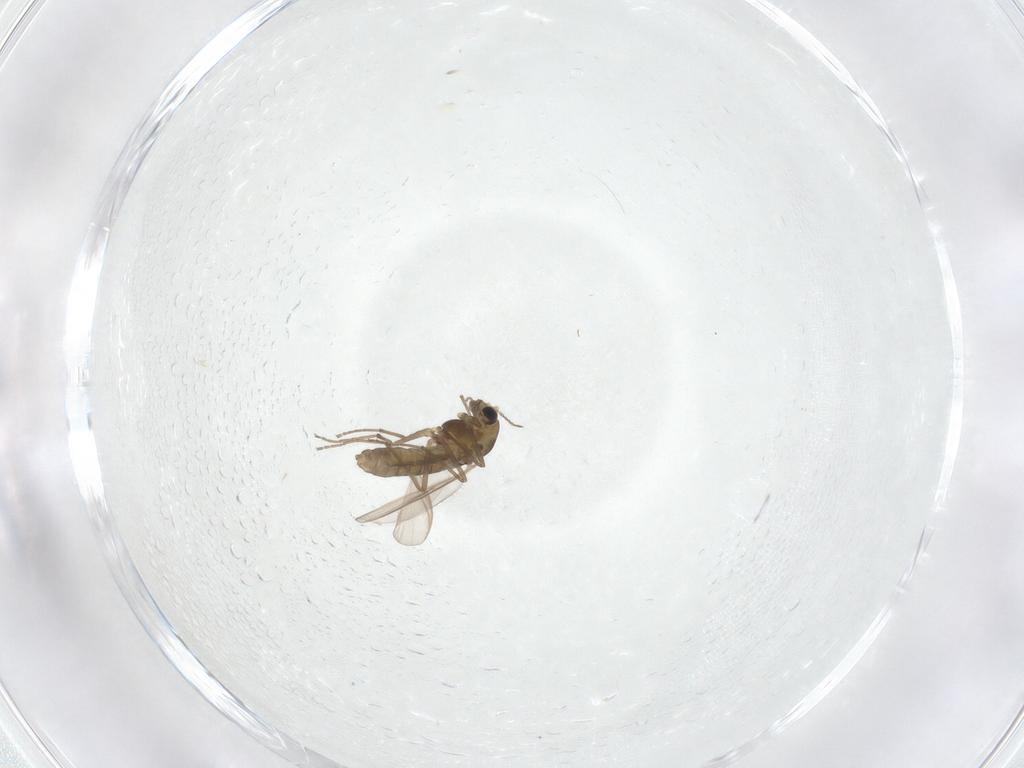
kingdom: Animalia
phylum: Arthropoda
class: Insecta
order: Diptera
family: Chironomidae
